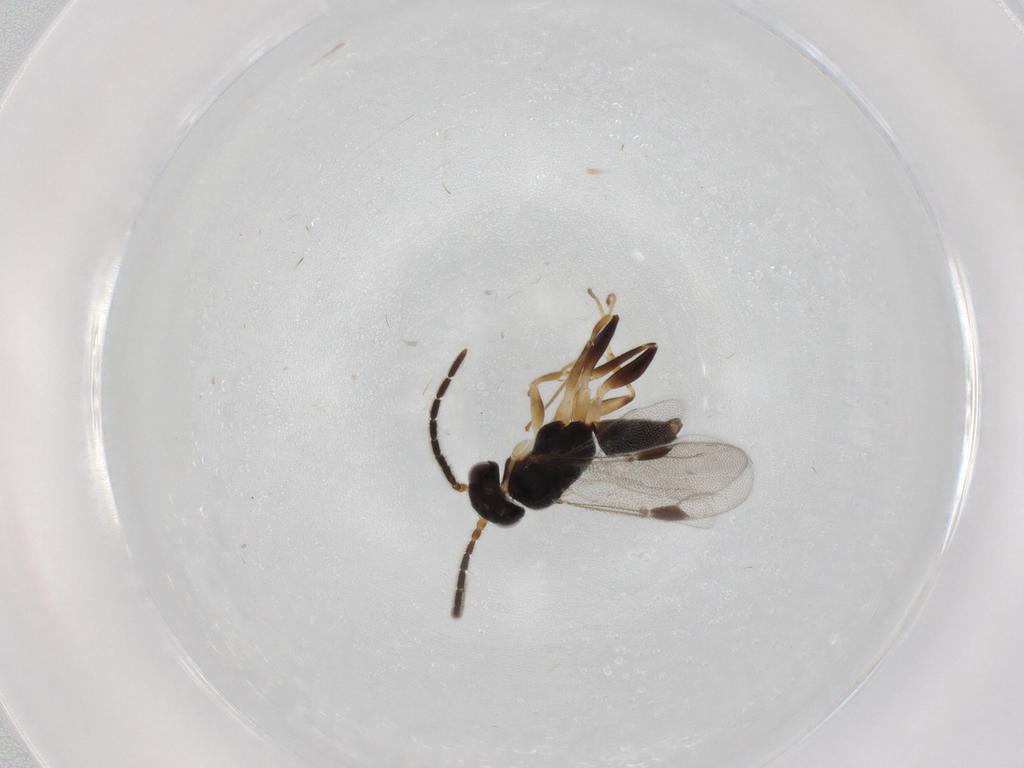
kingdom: Animalia
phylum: Arthropoda
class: Insecta
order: Hymenoptera
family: Dryinidae
